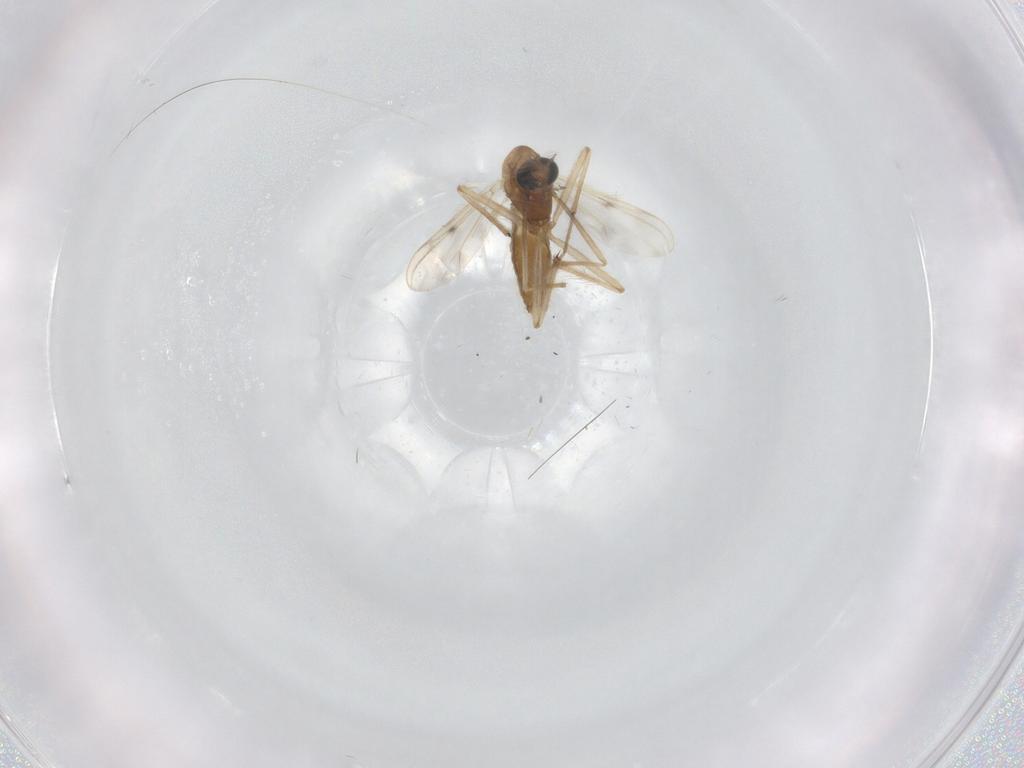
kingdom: Animalia
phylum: Arthropoda
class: Insecta
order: Diptera
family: Chironomidae
